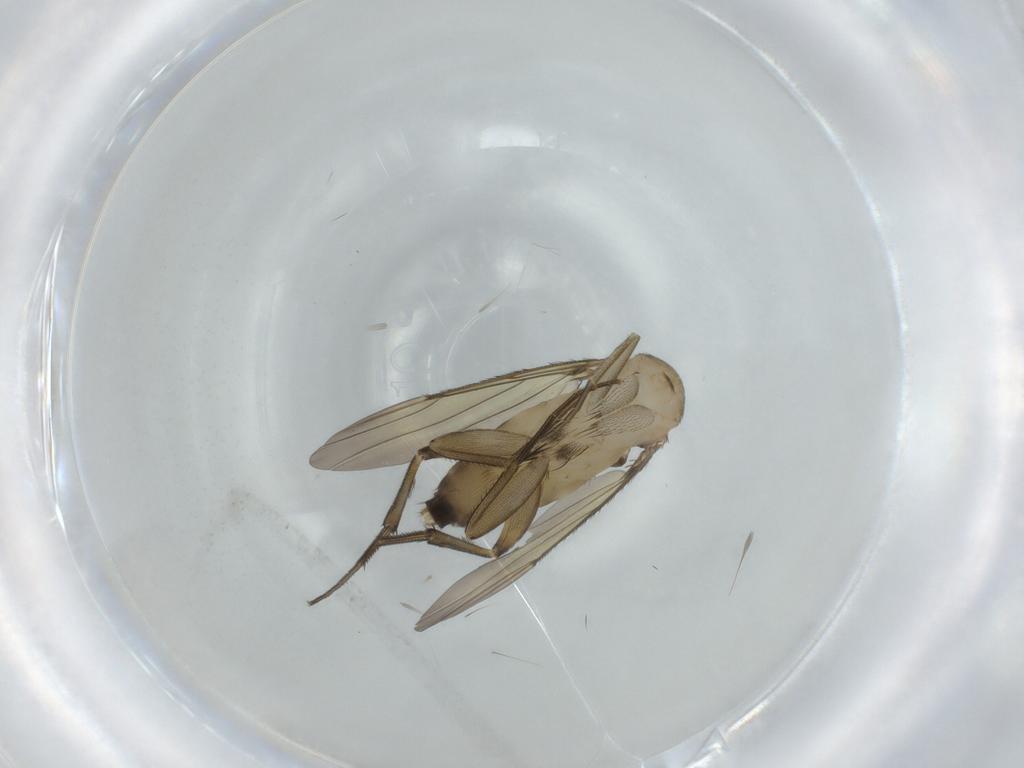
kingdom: Animalia
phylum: Arthropoda
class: Insecta
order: Diptera
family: Phoridae
